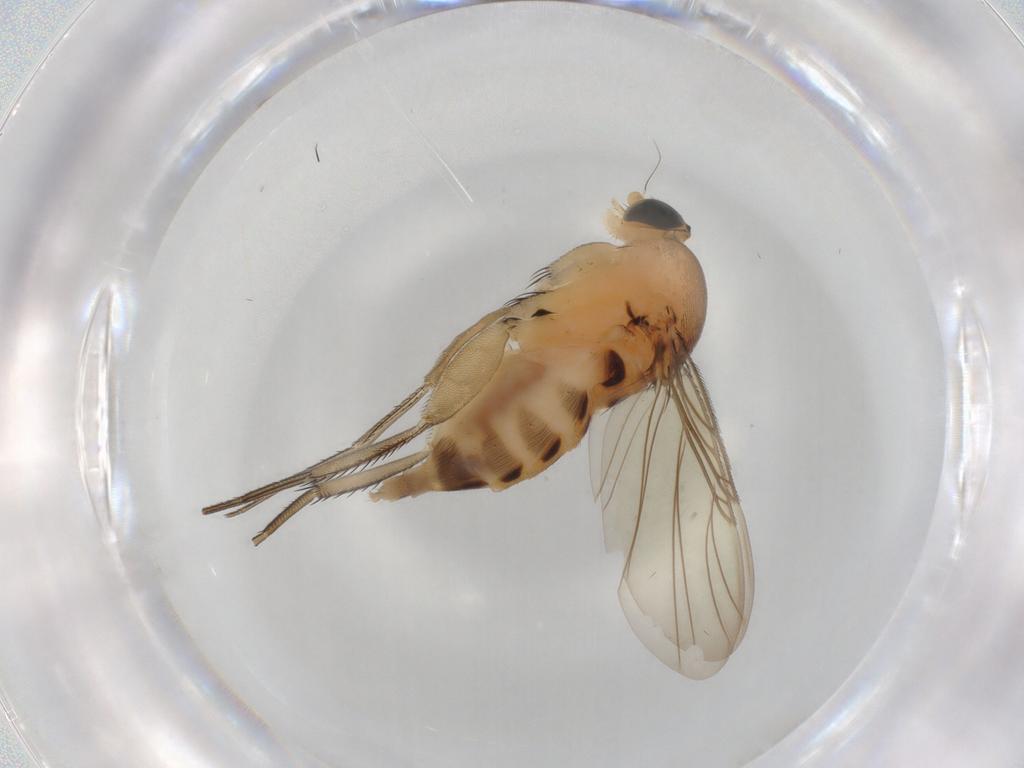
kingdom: Animalia
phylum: Arthropoda
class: Insecta
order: Diptera
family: Phoridae
